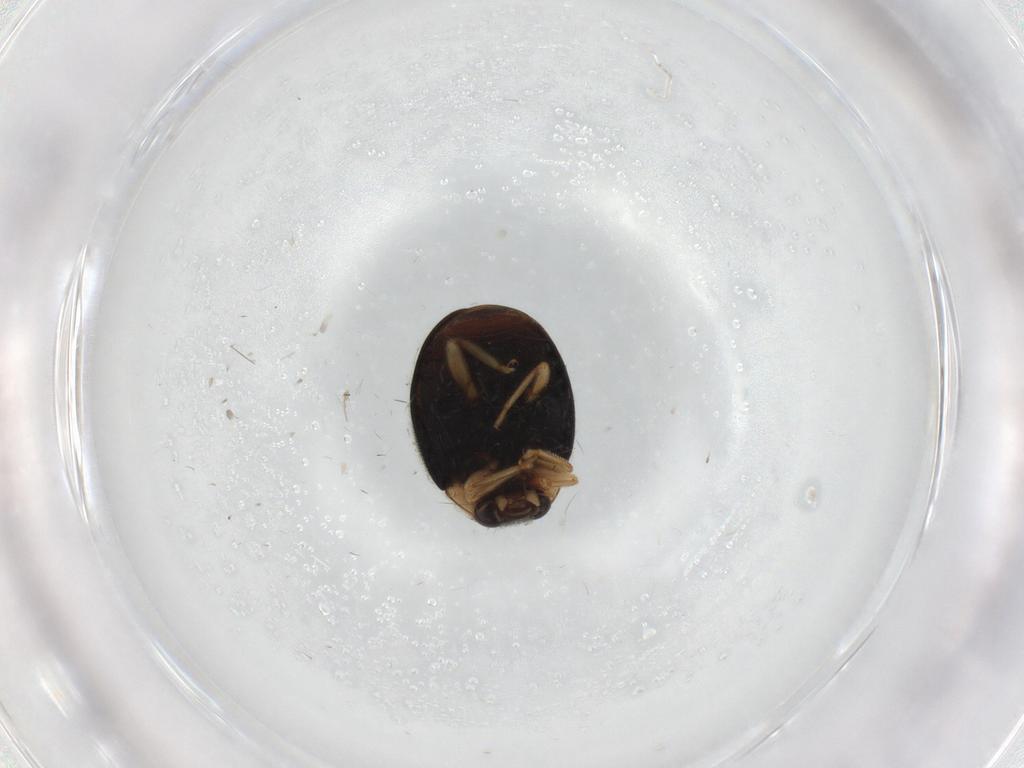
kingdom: Animalia
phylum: Arthropoda
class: Insecta
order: Coleoptera
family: Coccinellidae
